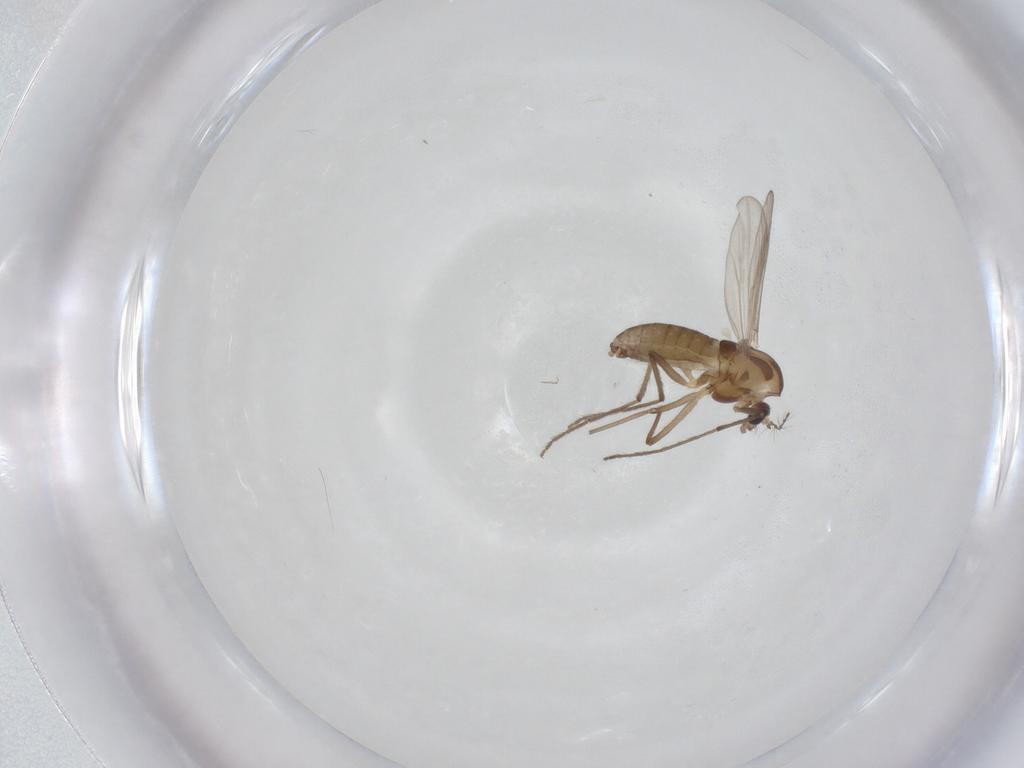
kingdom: Animalia
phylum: Arthropoda
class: Insecta
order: Diptera
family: Chironomidae
